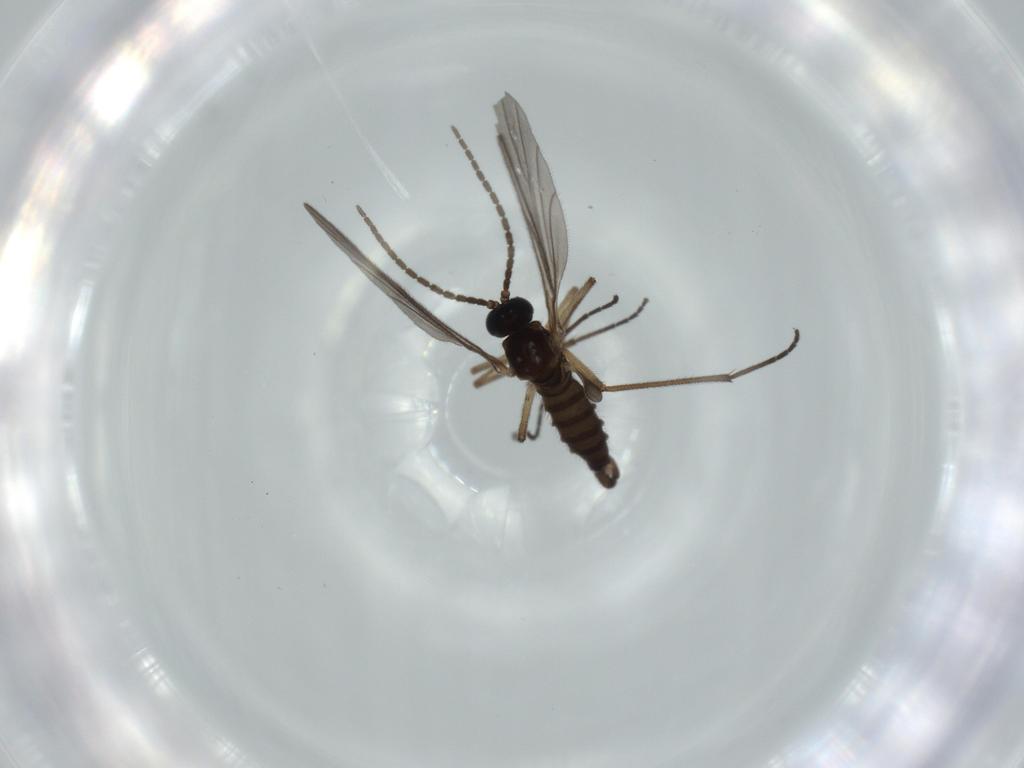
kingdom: Animalia
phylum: Arthropoda
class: Insecta
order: Diptera
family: Sciaridae
